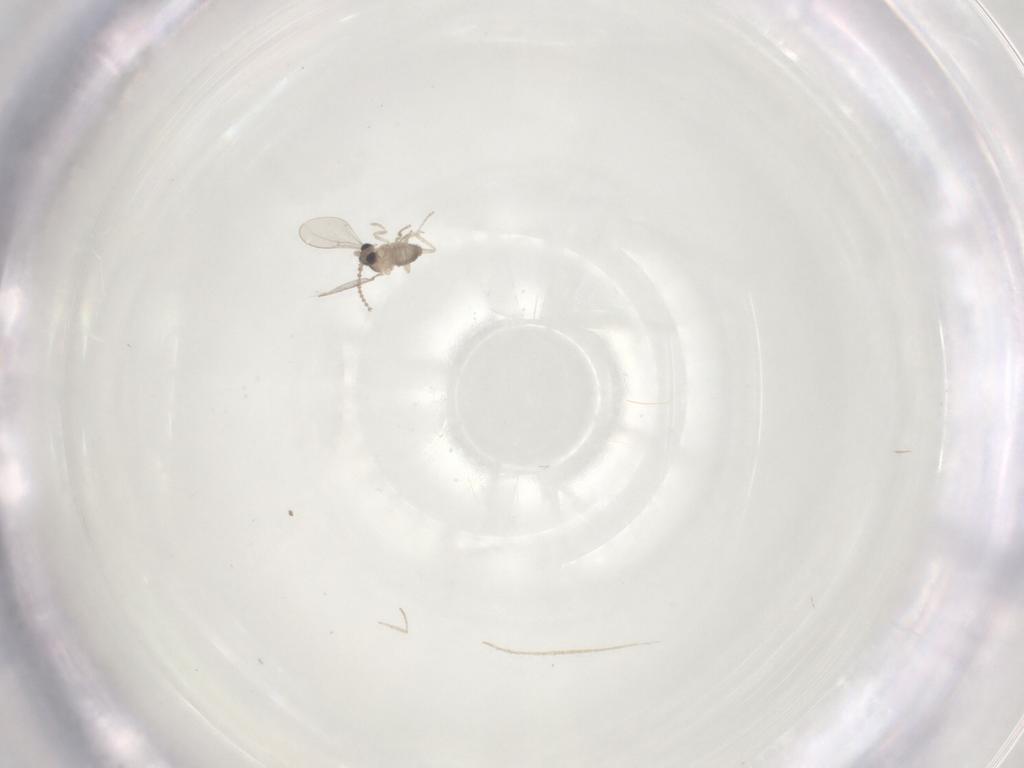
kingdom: Animalia
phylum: Arthropoda
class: Insecta
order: Diptera
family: Cecidomyiidae
